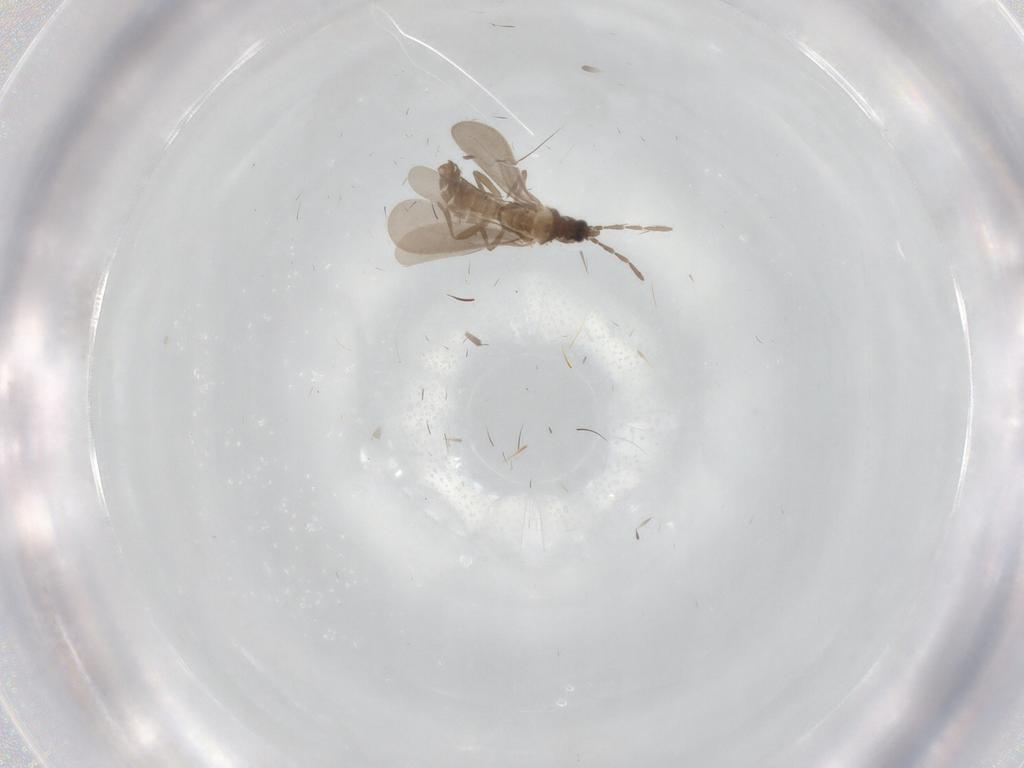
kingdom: Animalia
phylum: Arthropoda
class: Insecta
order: Hemiptera
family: Enicocephalidae
